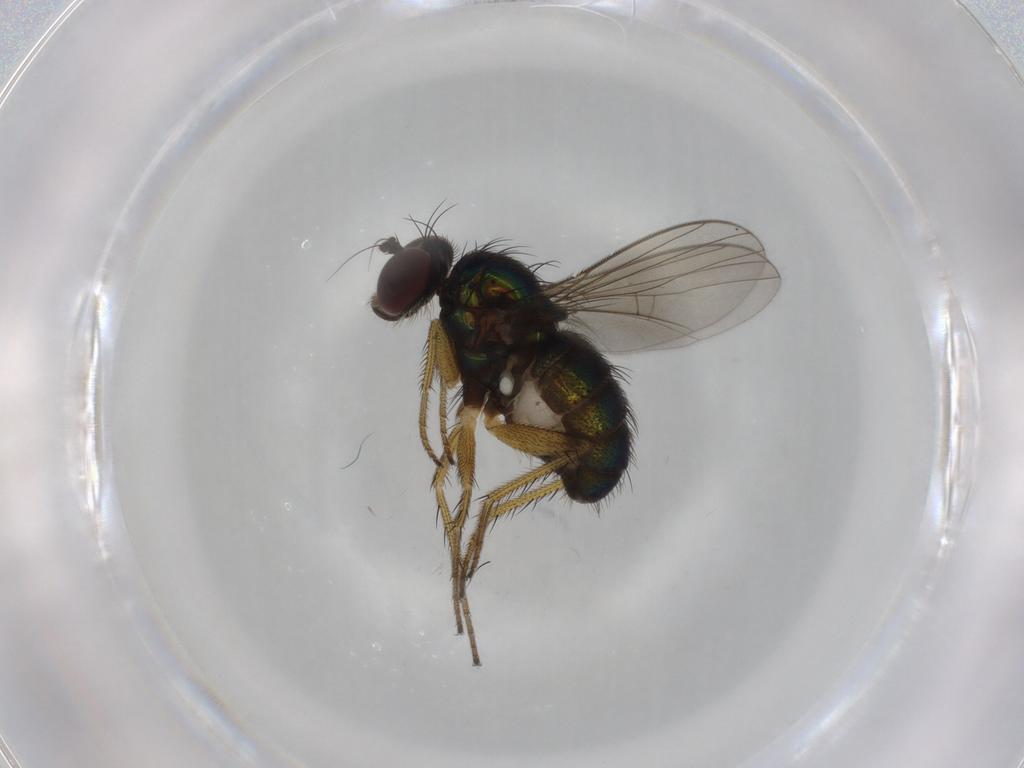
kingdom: Animalia
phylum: Arthropoda
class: Insecta
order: Diptera
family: Dolichopodidae
